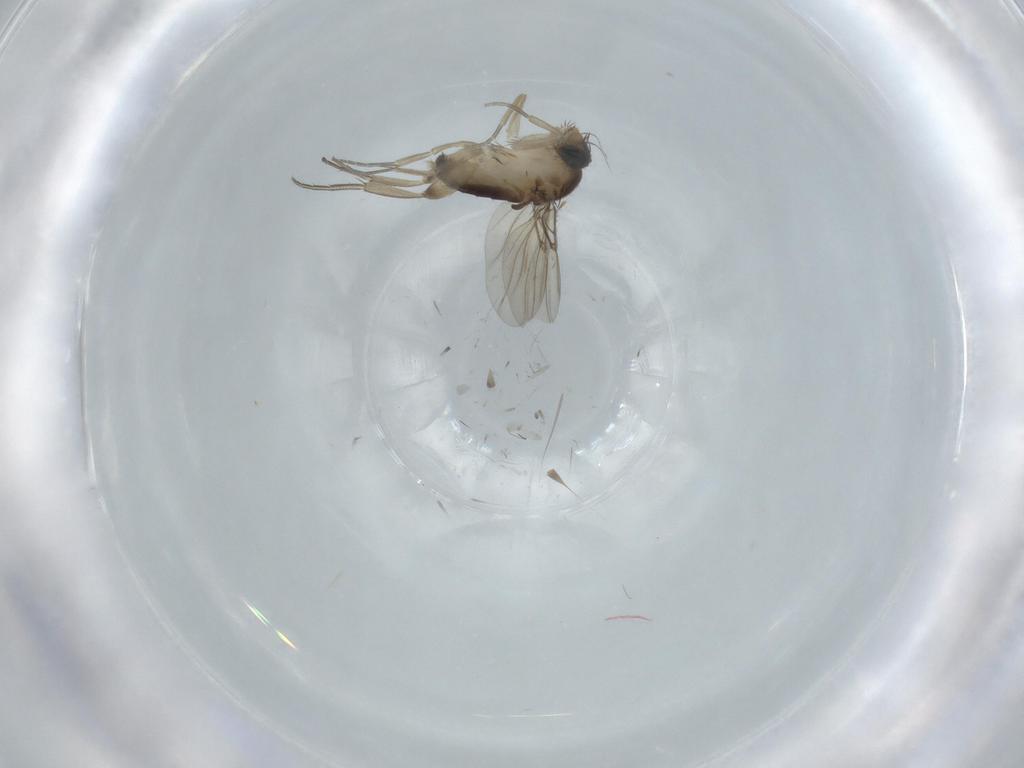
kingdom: Animalia
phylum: Arthropoda
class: Insecta
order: Diptera
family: Phoridae
